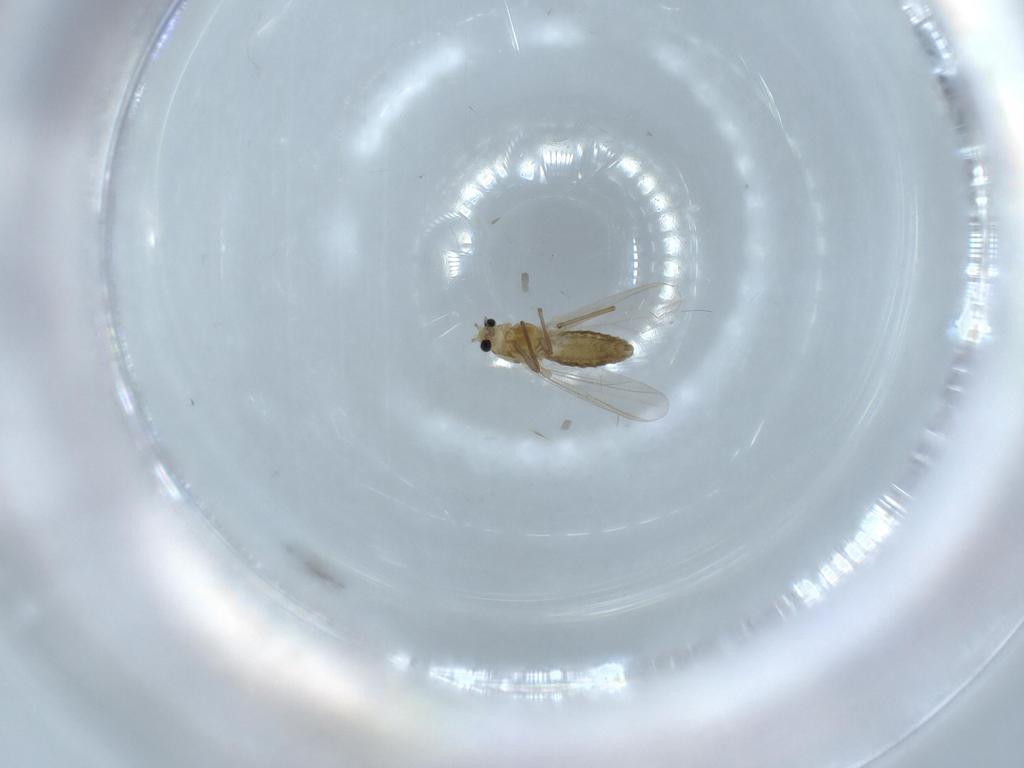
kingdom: Animalia
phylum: Arthropoda
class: Insecta
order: Diptera
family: Chironomidae
